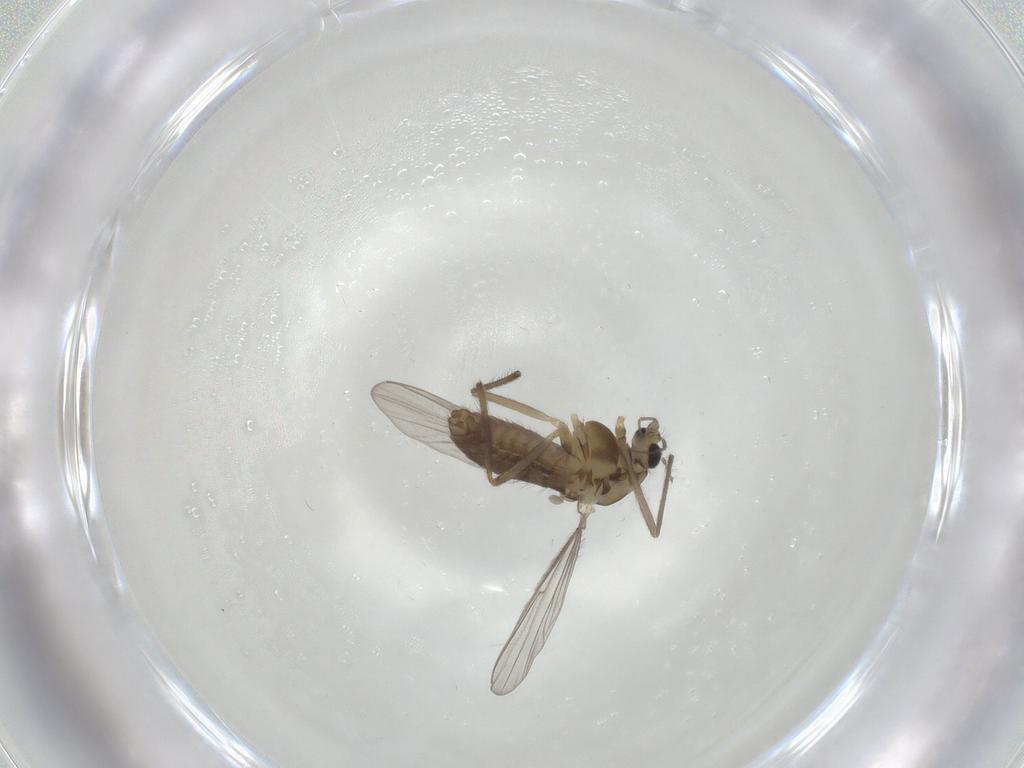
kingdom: Animalia
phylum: Arthropoda
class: Insecta
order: Diptera
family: Chironomidae
